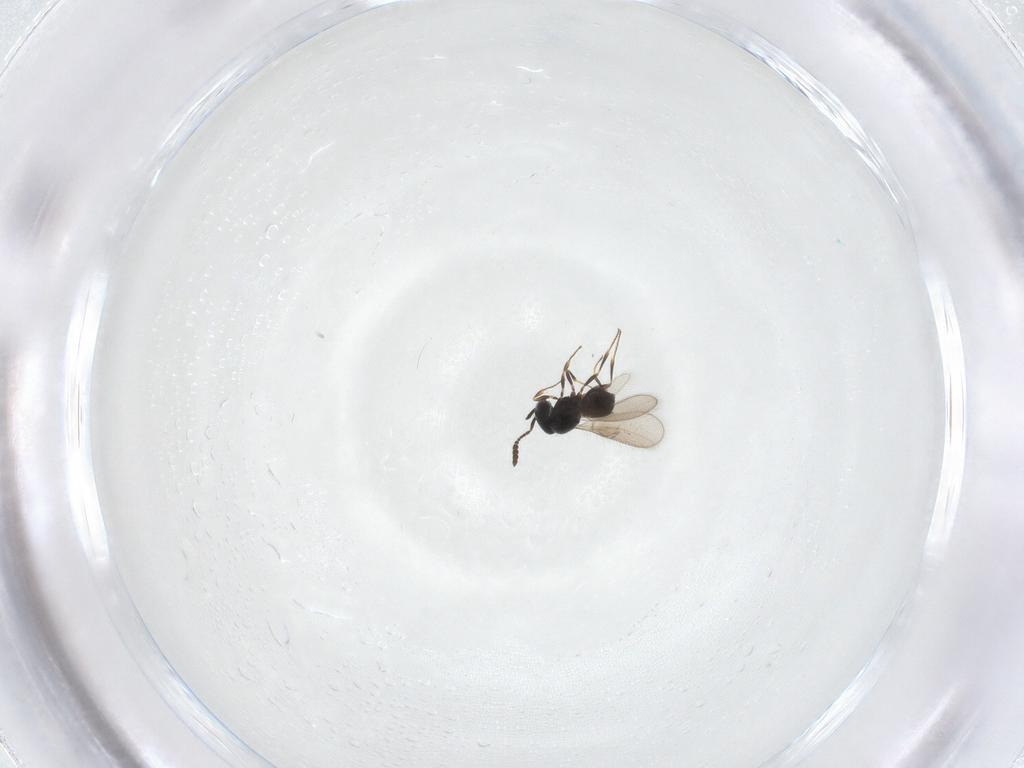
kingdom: Animalia
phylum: Arthropoda
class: Insecta
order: Hymenoptera
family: Scelionidae
